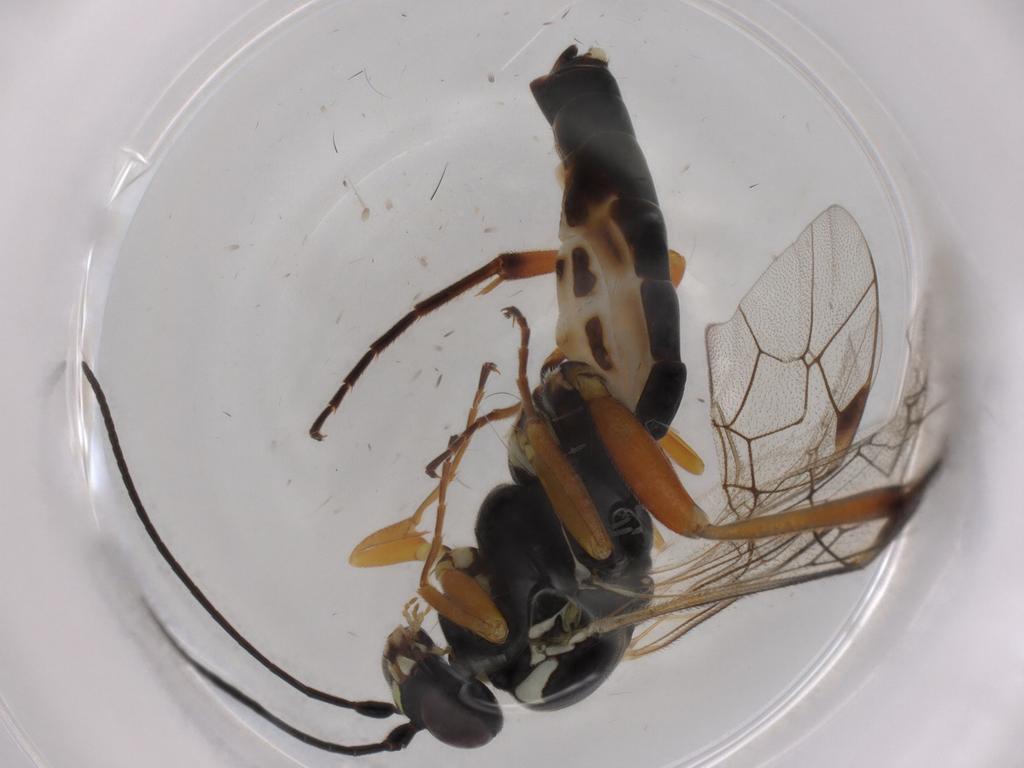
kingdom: Animalia
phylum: Arthropoda
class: Insecta
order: Hymenoptera
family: Ichneumonidae
